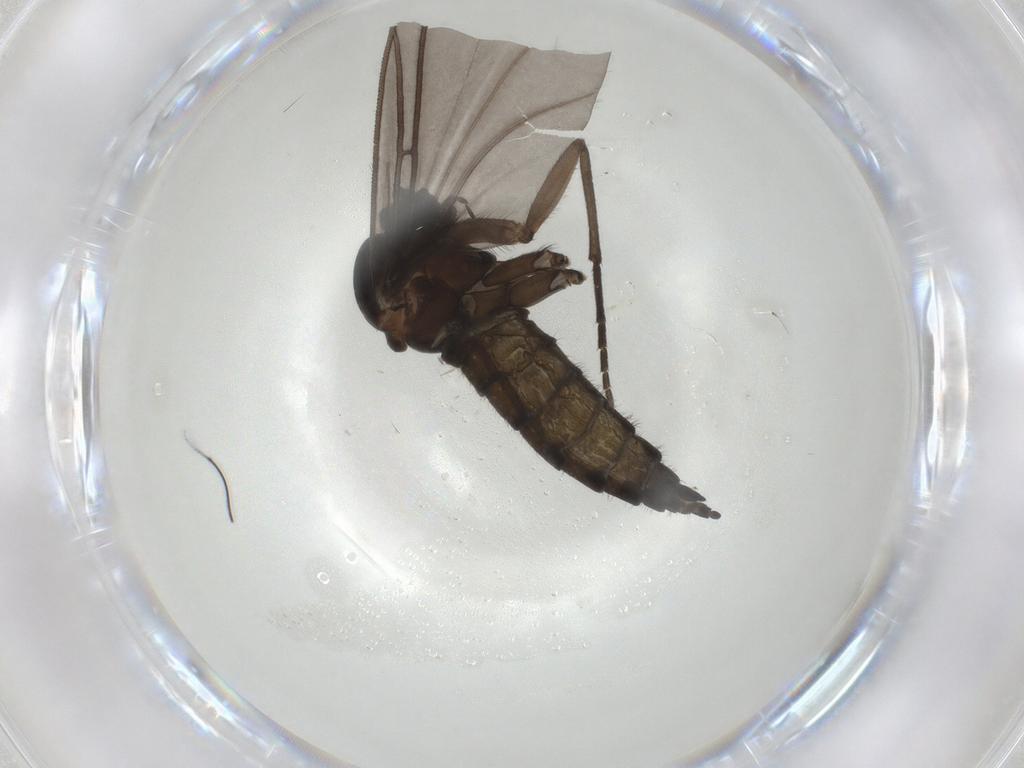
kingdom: Animalia
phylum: Arthropoda
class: Insecta
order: Diptera
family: Sciaridae
